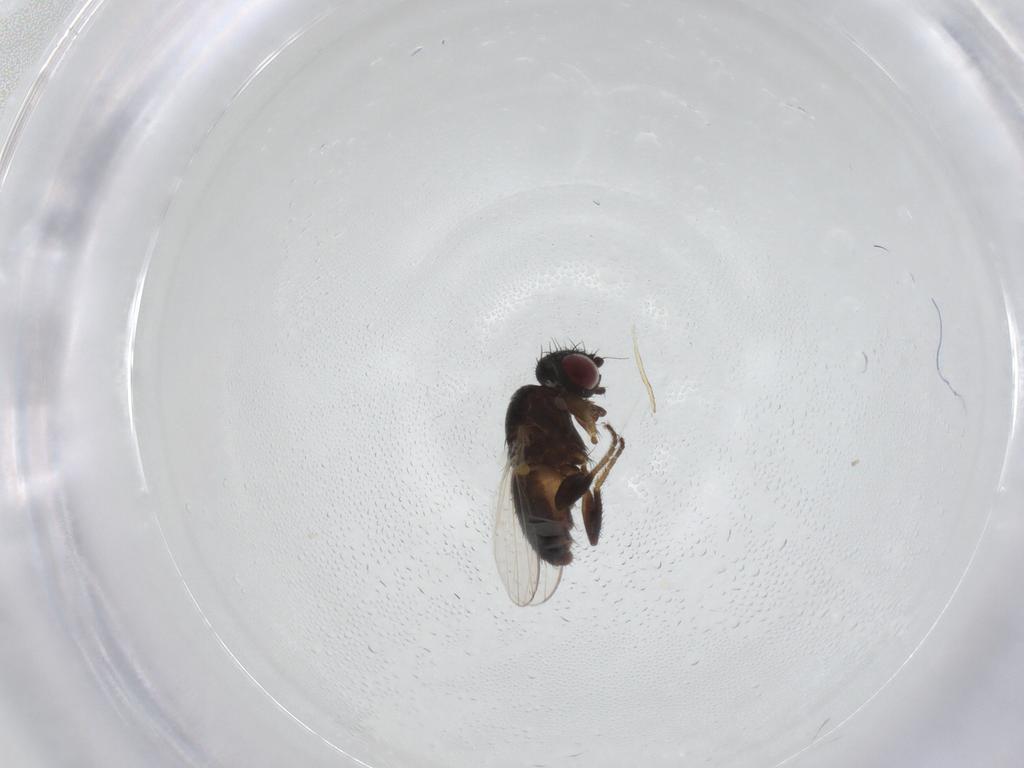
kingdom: Animalia
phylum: Arthropoda
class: Insecta
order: Diptera
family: Milichiidae
